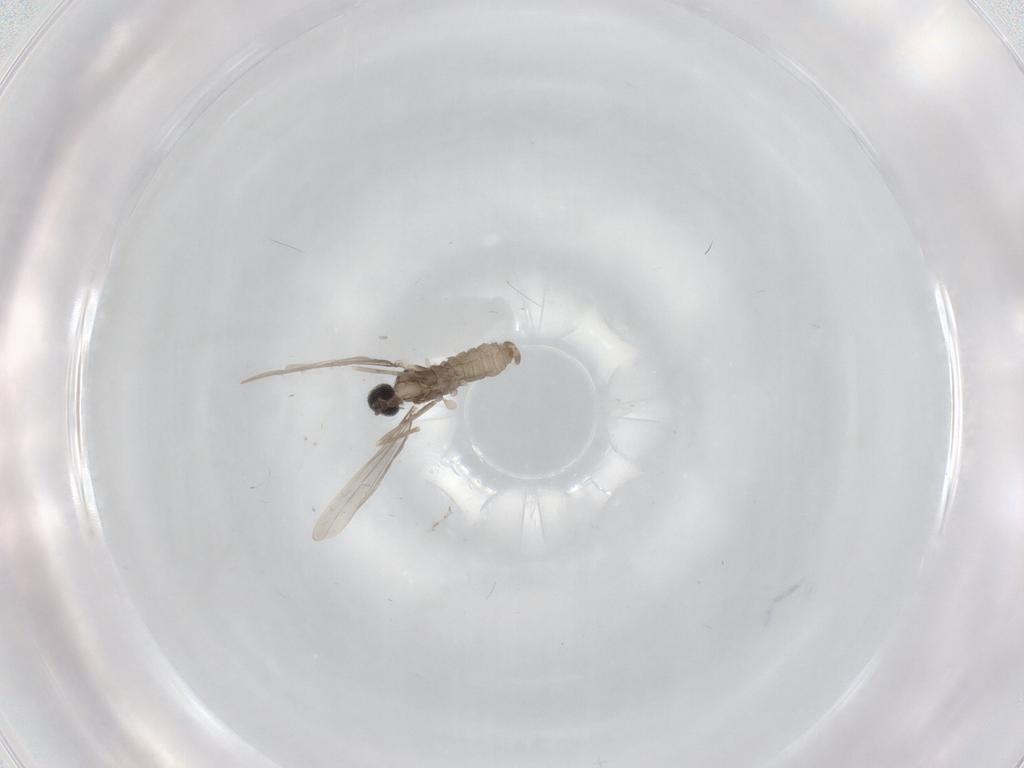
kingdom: Animalia
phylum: Arthropoda
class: Insecta
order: Diptera
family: Cecidomyiidae
